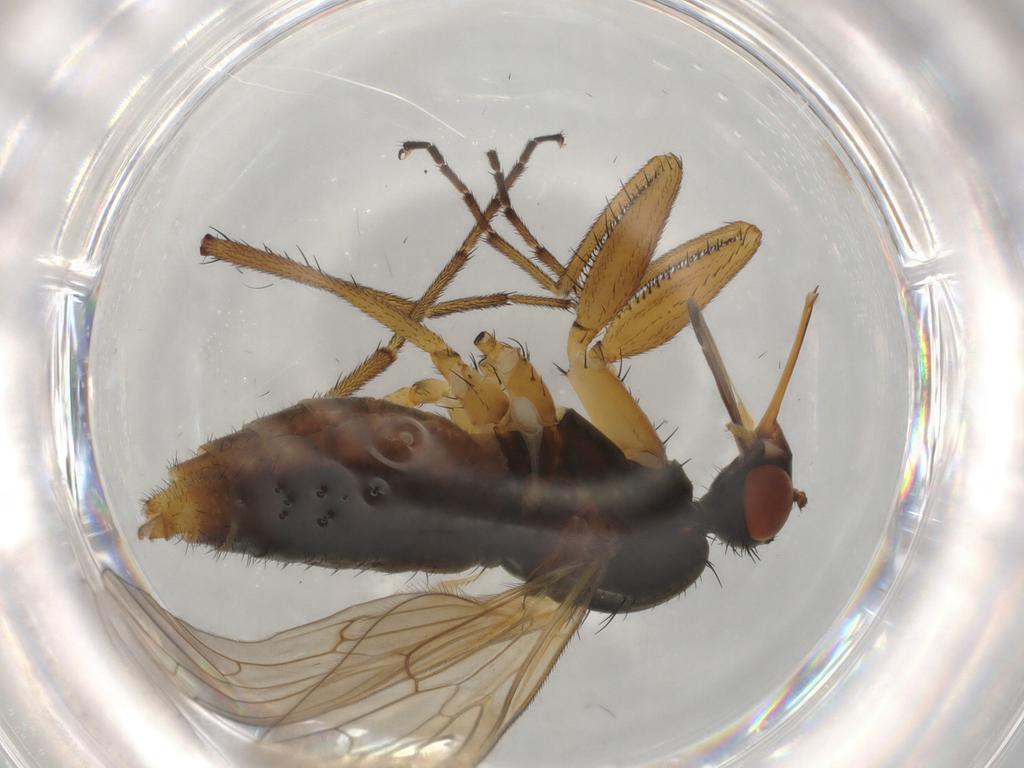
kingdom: Animalia
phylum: Arthropoda
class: Insecta
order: Diptera
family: Empididae
